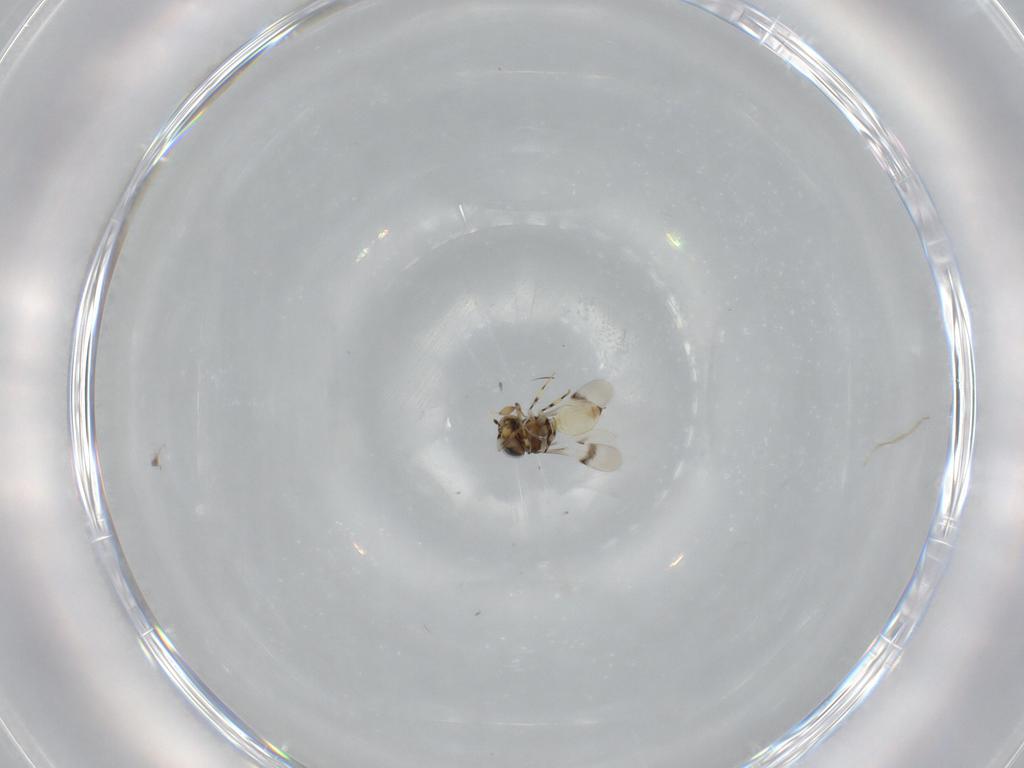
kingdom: Animalia
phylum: Arthropoda
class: Insecta
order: Hymenoptera
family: Scelionidae
